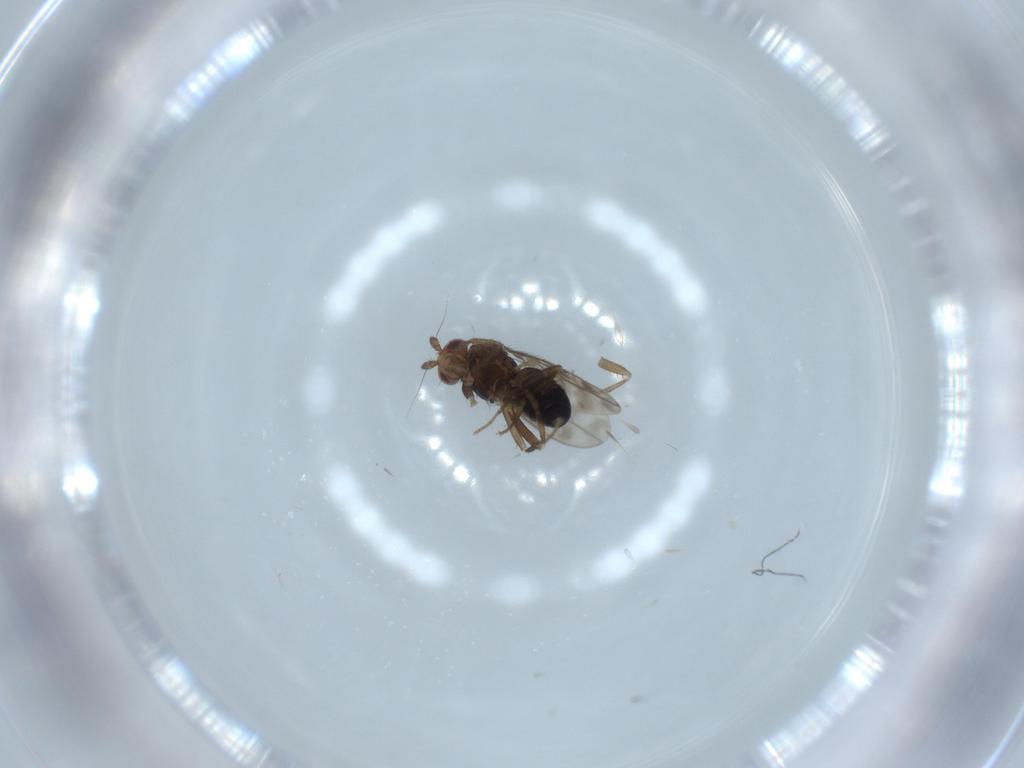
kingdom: Animalia
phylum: Arthropoda
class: Insecta
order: Diptera
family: Sphaeroceridae
